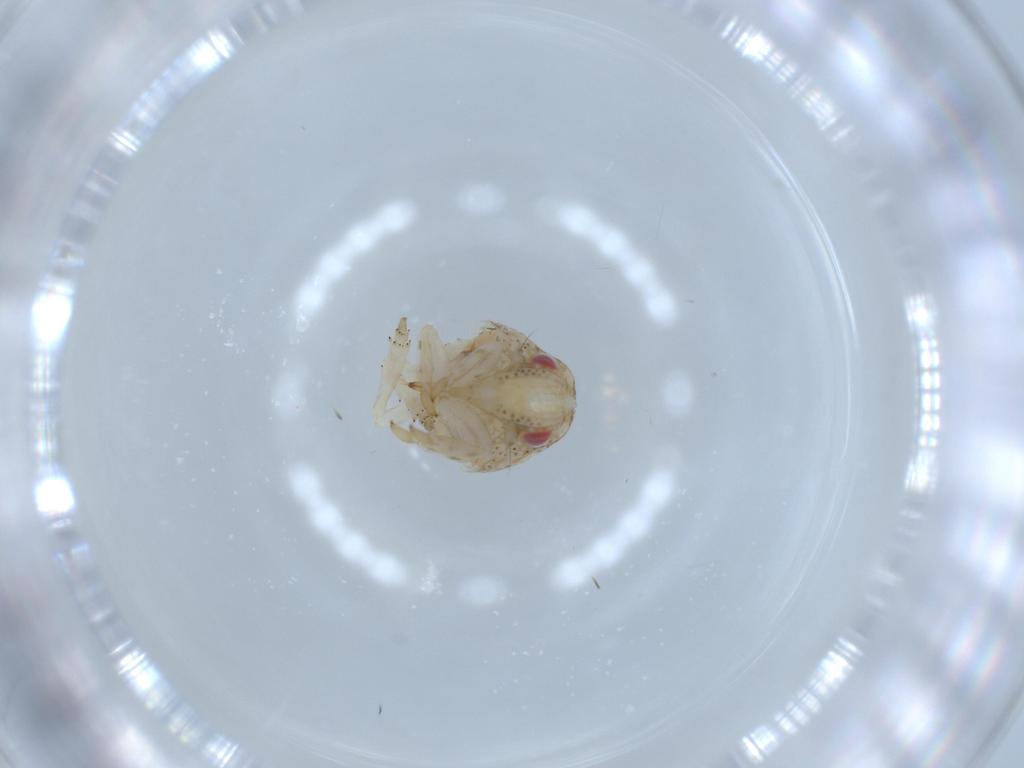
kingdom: Animalia
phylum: Arthropoda
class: Insecta
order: Hemiptera
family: Acanaloniidae
